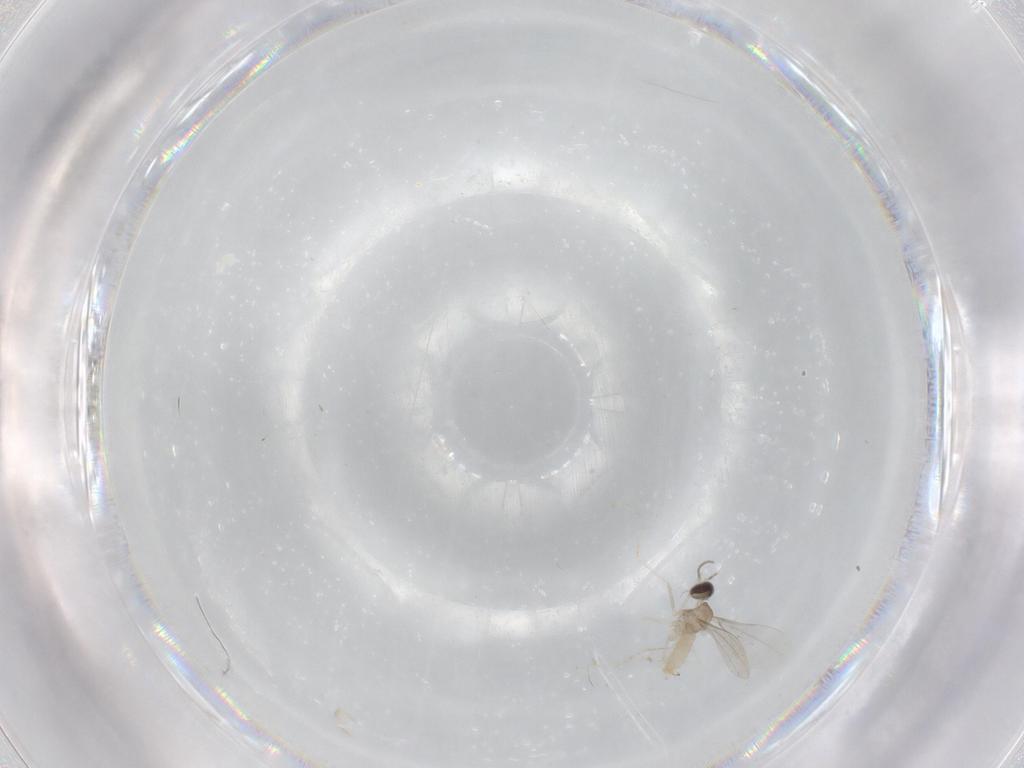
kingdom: Animalia
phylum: Arthropoda
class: Insecta
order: Diptera
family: Cecidomyiidae
